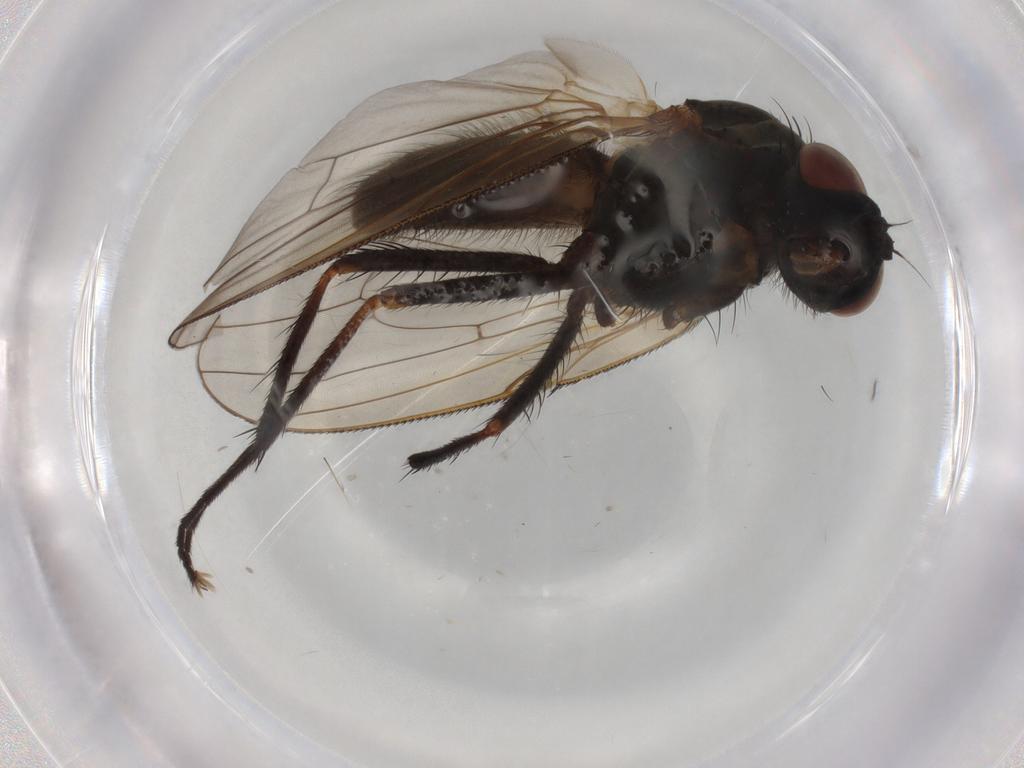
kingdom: Animalia
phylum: Arthropoda
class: Insecta
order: Diptera
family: Anthomyiidae
